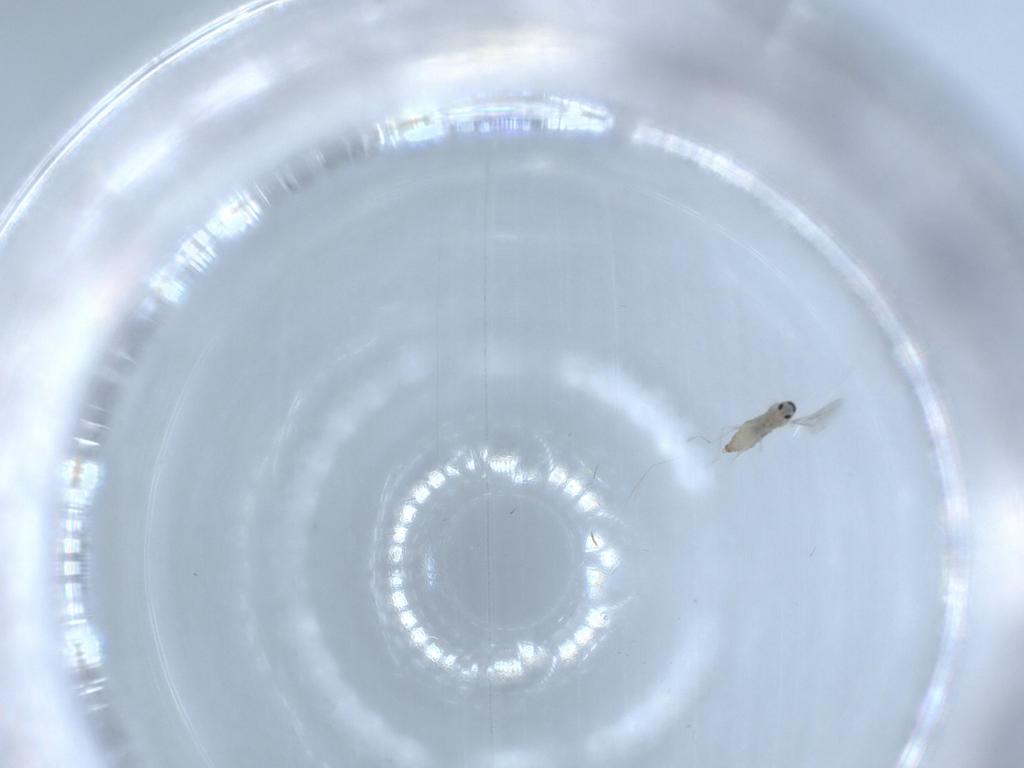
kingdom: Animalia
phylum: Arthropoda
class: Insecta
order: Diptera
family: Cecidomyiidae
